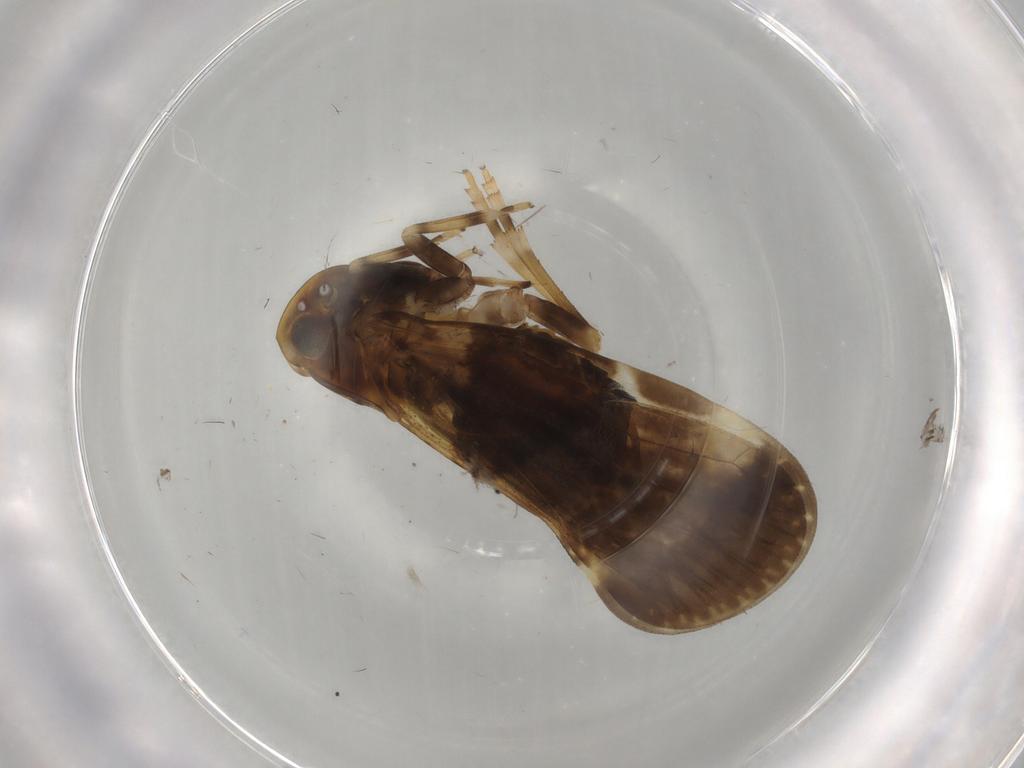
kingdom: Animalia
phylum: Arthropoda
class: Insecta
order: Hemiptera
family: Cixiidae
